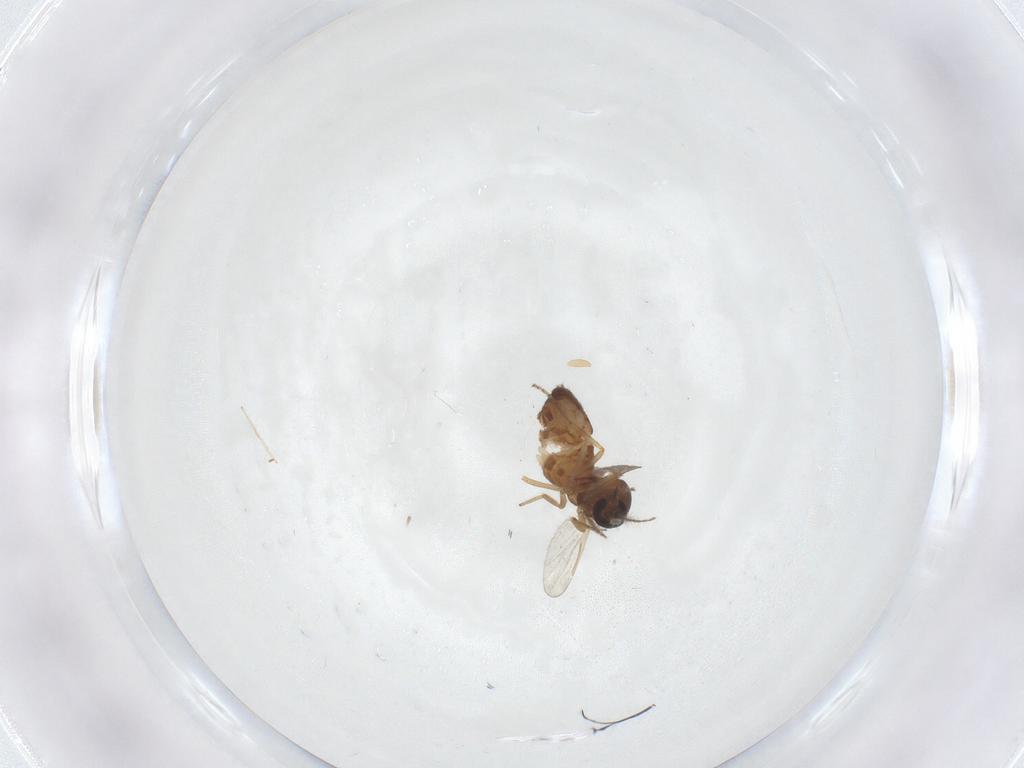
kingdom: Animalia
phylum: Arthropoda
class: Insecta
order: Diptera
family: Ceratopogonidae
